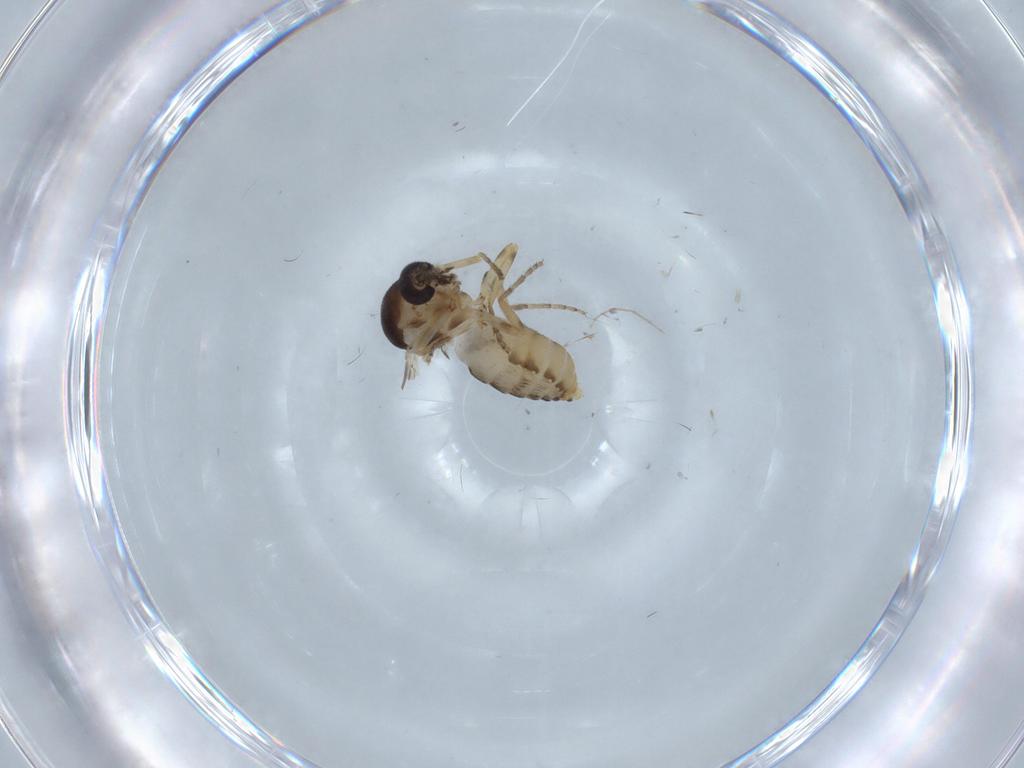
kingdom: Animalia
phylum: Arthropoda
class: Insecta
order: Diptera
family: Ceratopogonidae
